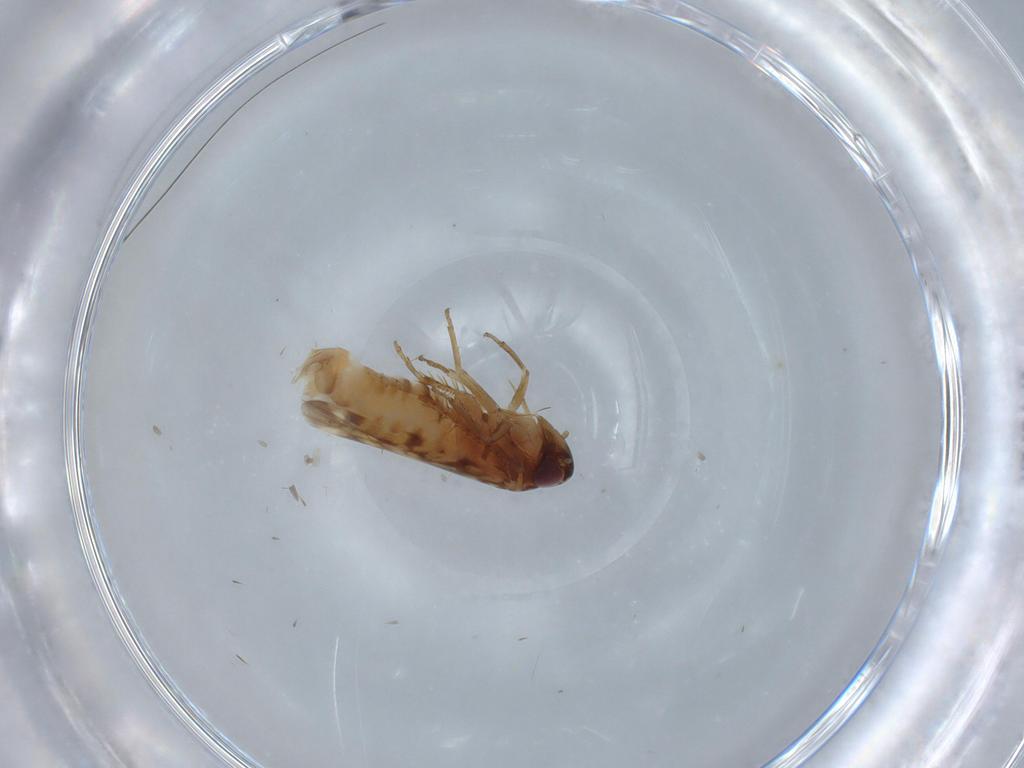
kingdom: Animalia
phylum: Arthropoda
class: Insecta
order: Hemiptera
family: Cicadellidae
